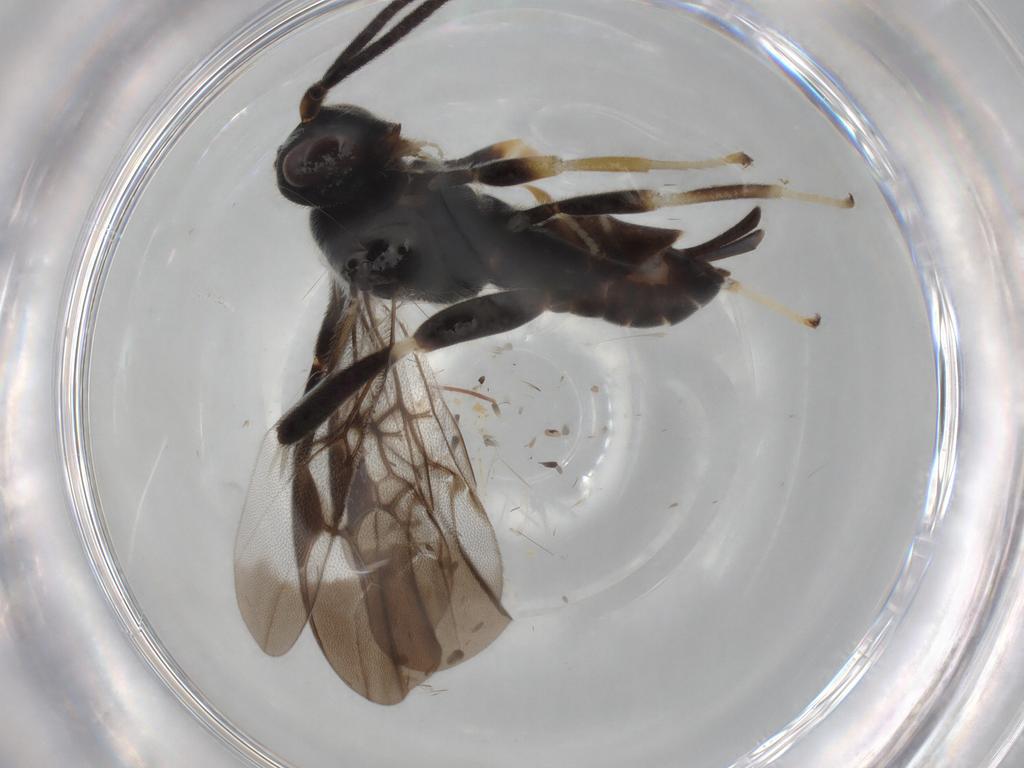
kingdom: Animalia
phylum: Arthropoda
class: Insecta
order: Hymenoptera
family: Braconidae
